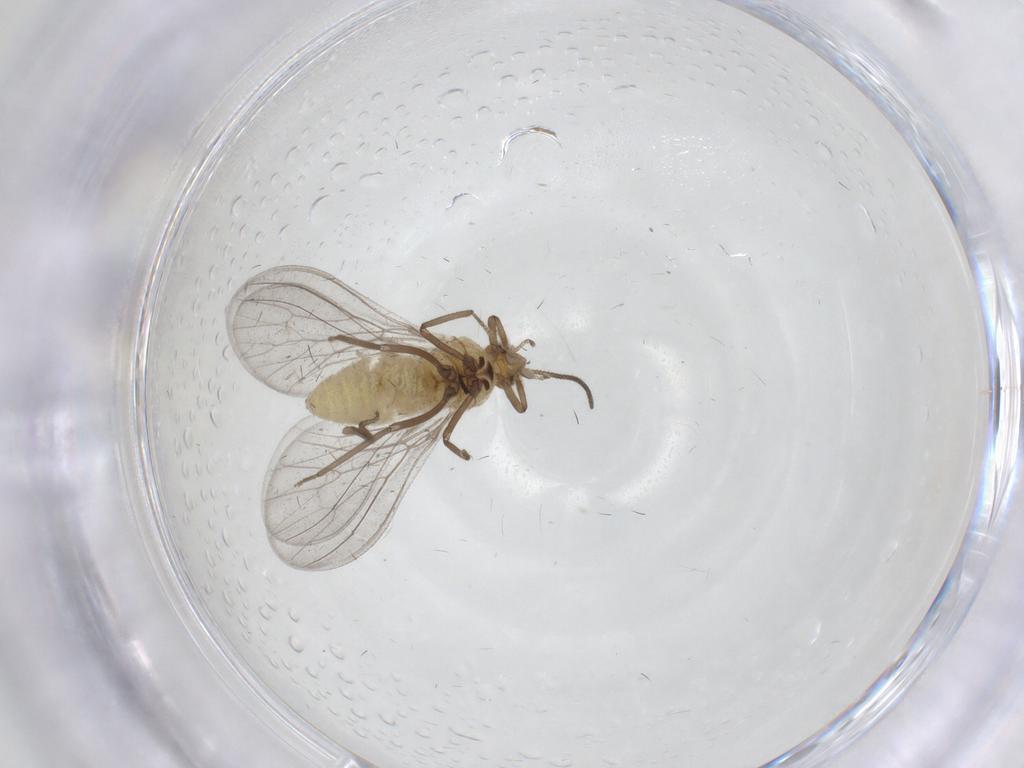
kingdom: Animalia
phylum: Arthropoda
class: Insecta
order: Neuroptera
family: Coniopterygidae
